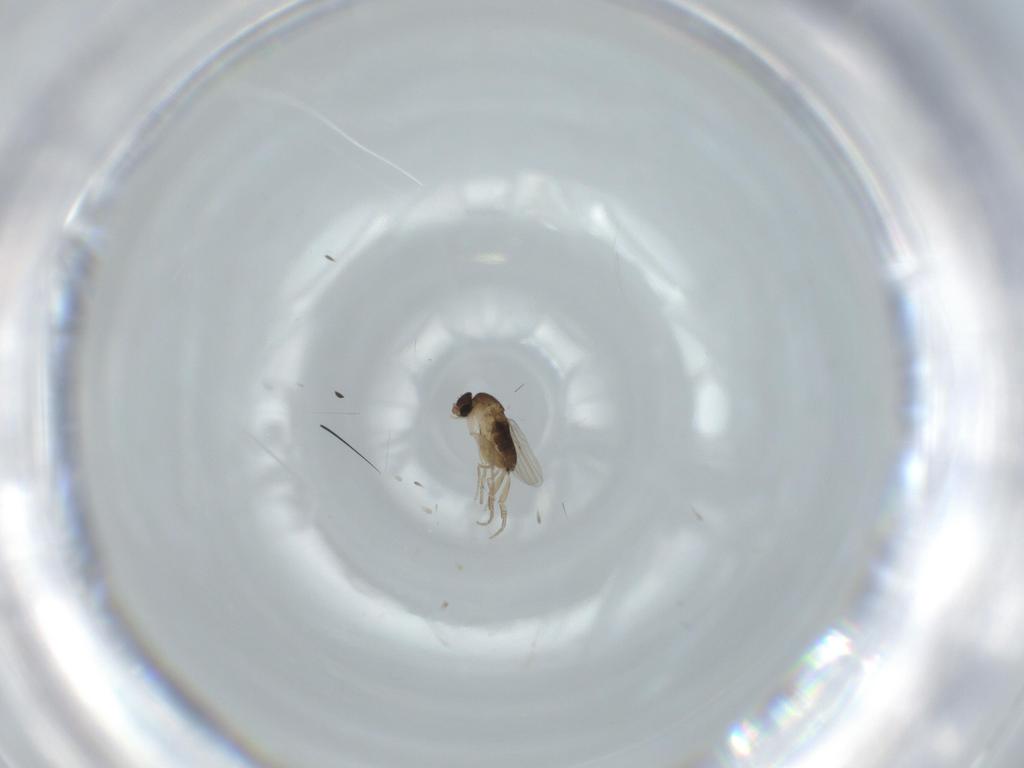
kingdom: Animalia
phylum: Arthropoda
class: Insecta
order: Diptera
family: Phoridae
